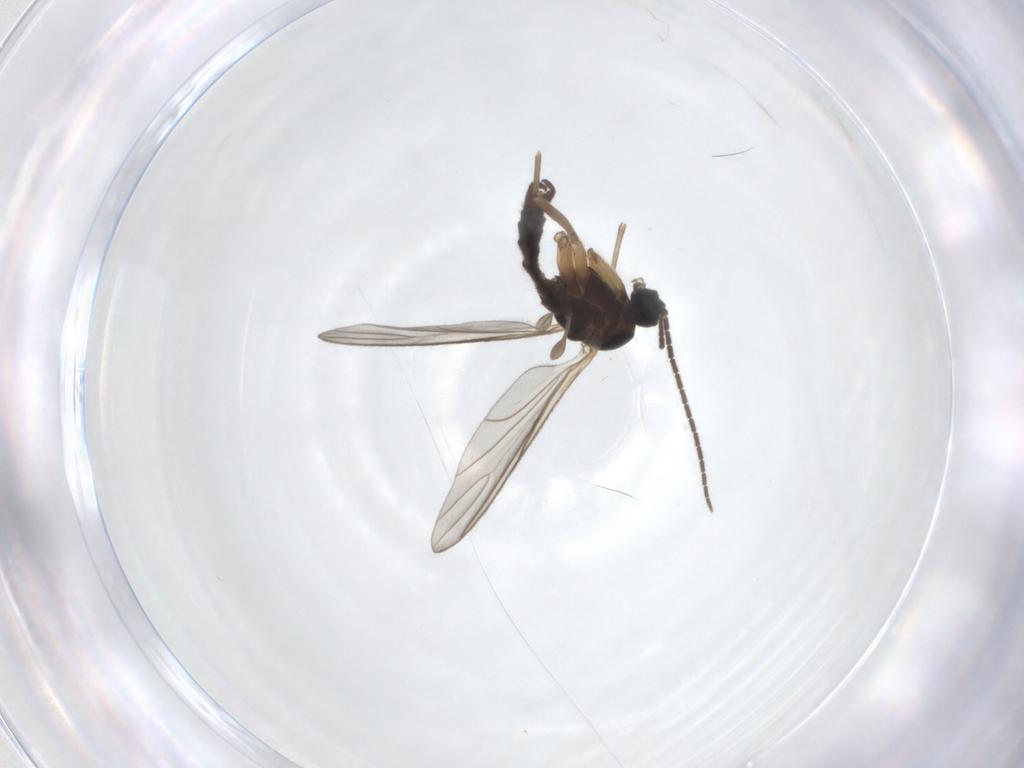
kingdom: Animalia
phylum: Arthropoda
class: Insecta
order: Diptera
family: Sciaridae
